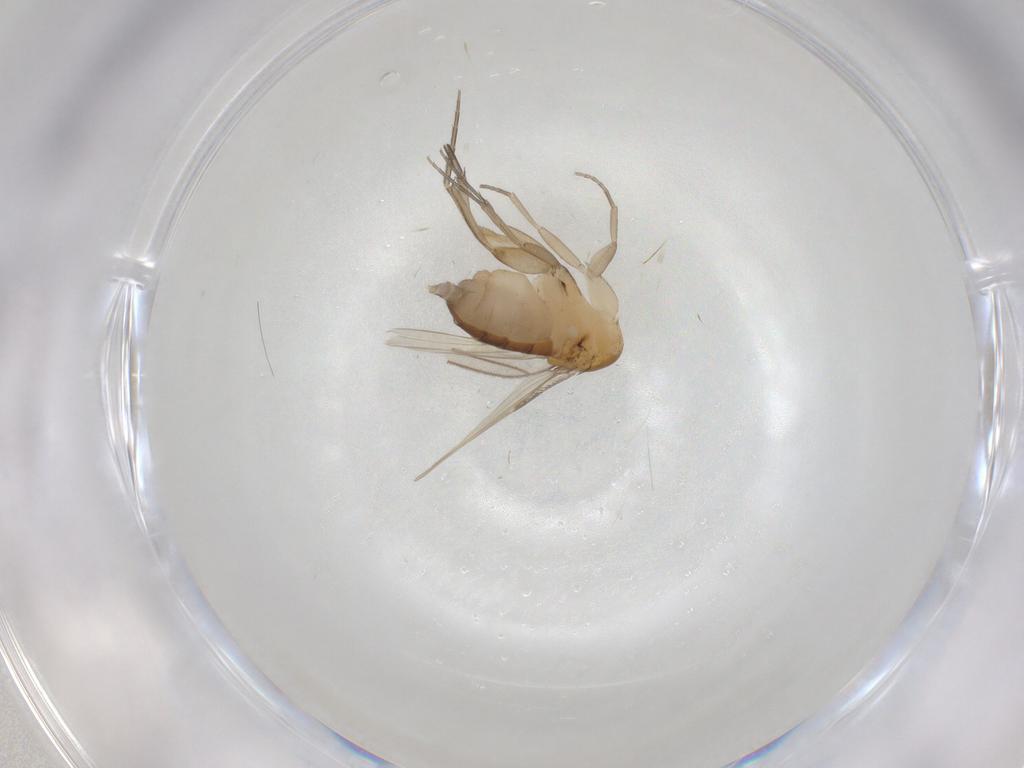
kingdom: Animalia
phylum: Arthropoda
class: Insecta
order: Diptera
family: Phoridae
